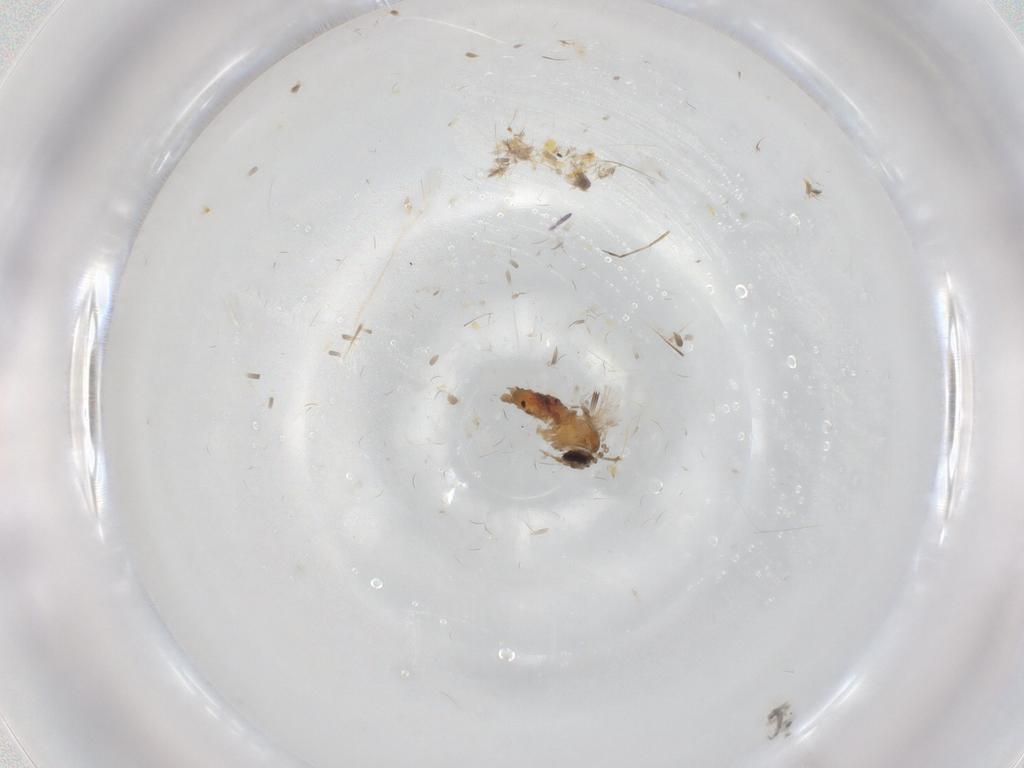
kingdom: Animalia
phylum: Arthropoda
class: Insecta
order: Diptera
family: Psychodidae
